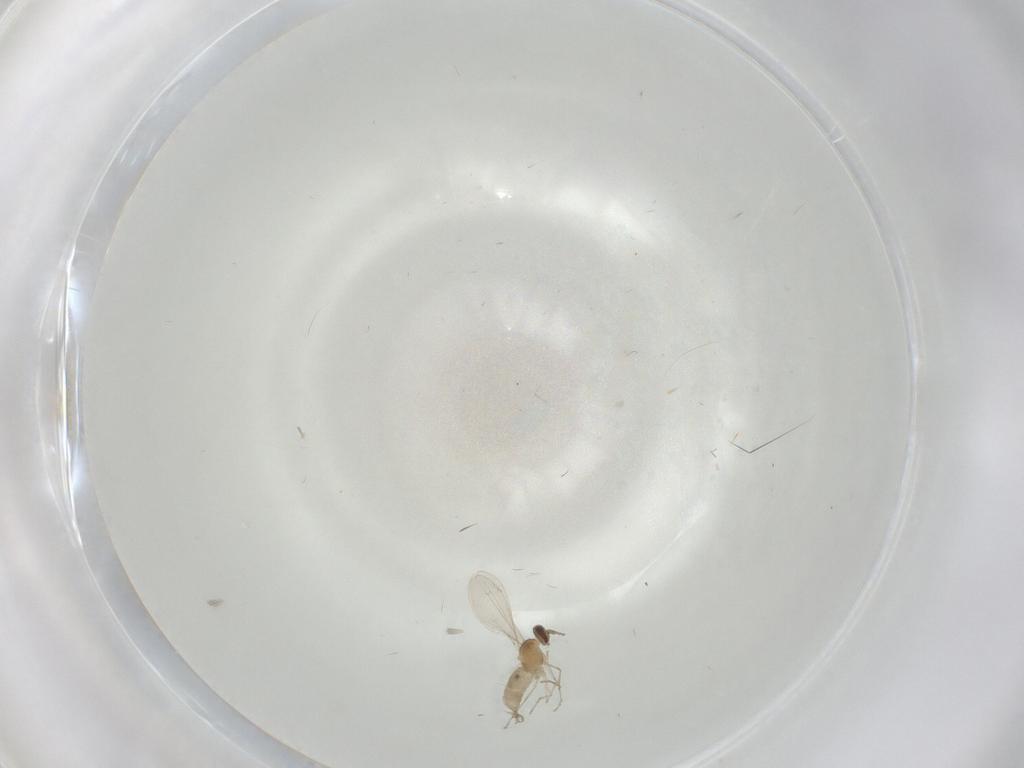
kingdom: Animalia
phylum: Arthropoda
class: Insecta
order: Diptera
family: Cecidomyiidae
